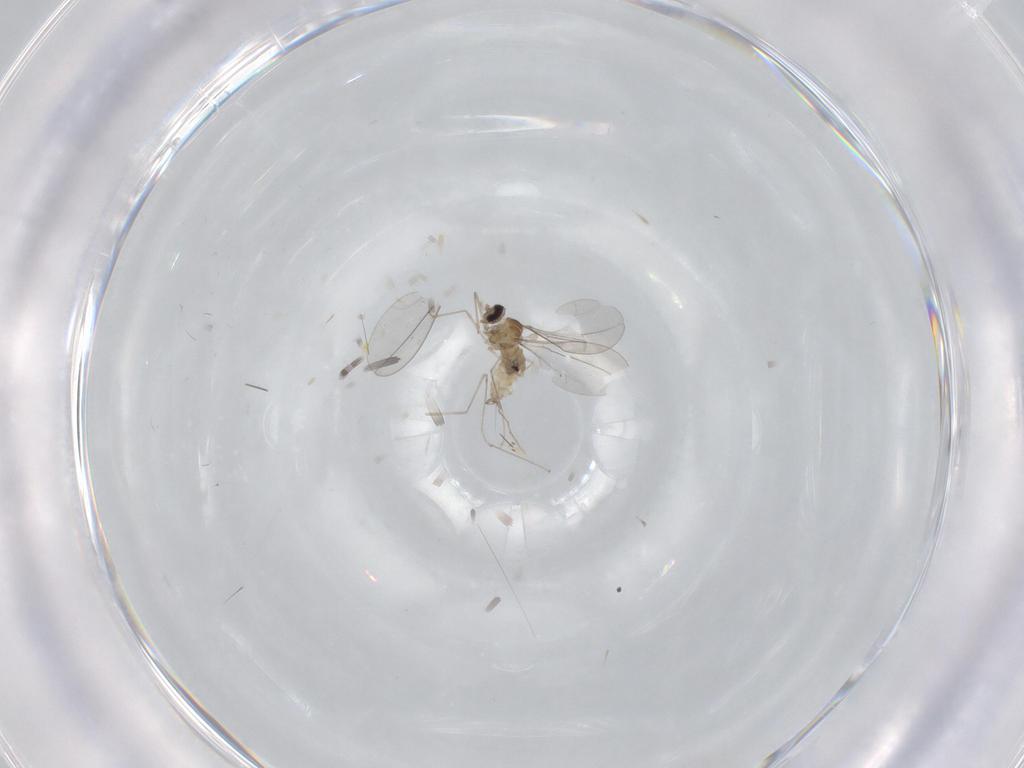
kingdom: Animalia
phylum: Arthropoda
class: Insecta
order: Diptera
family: Cecidomyiidae
